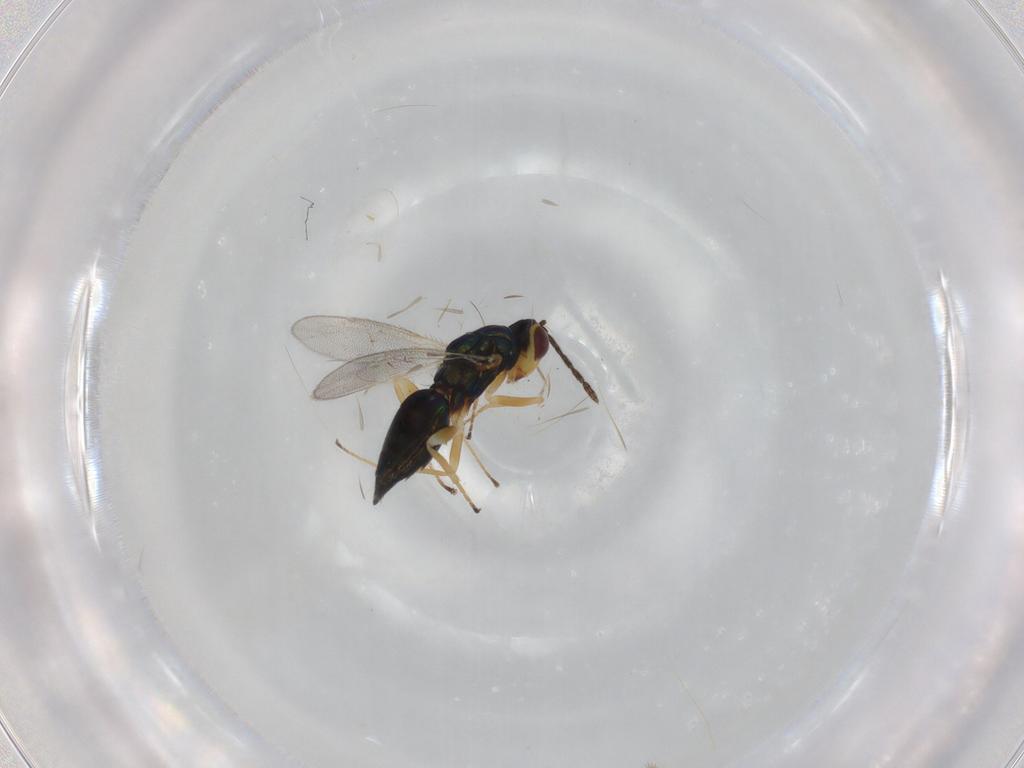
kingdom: Animalia
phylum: Arthropoda
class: Insecta
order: Hymenoptera
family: Eulophidae
